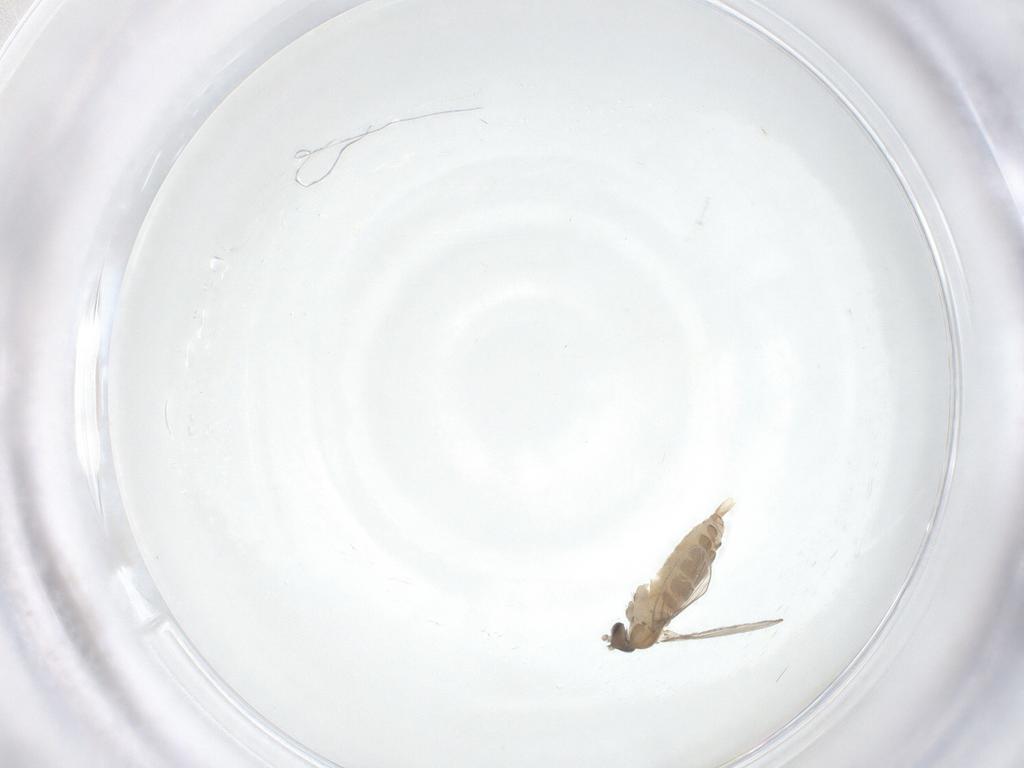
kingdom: Animalia
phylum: Arthropoda
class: Insecta
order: Diptera
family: Psychodidae
